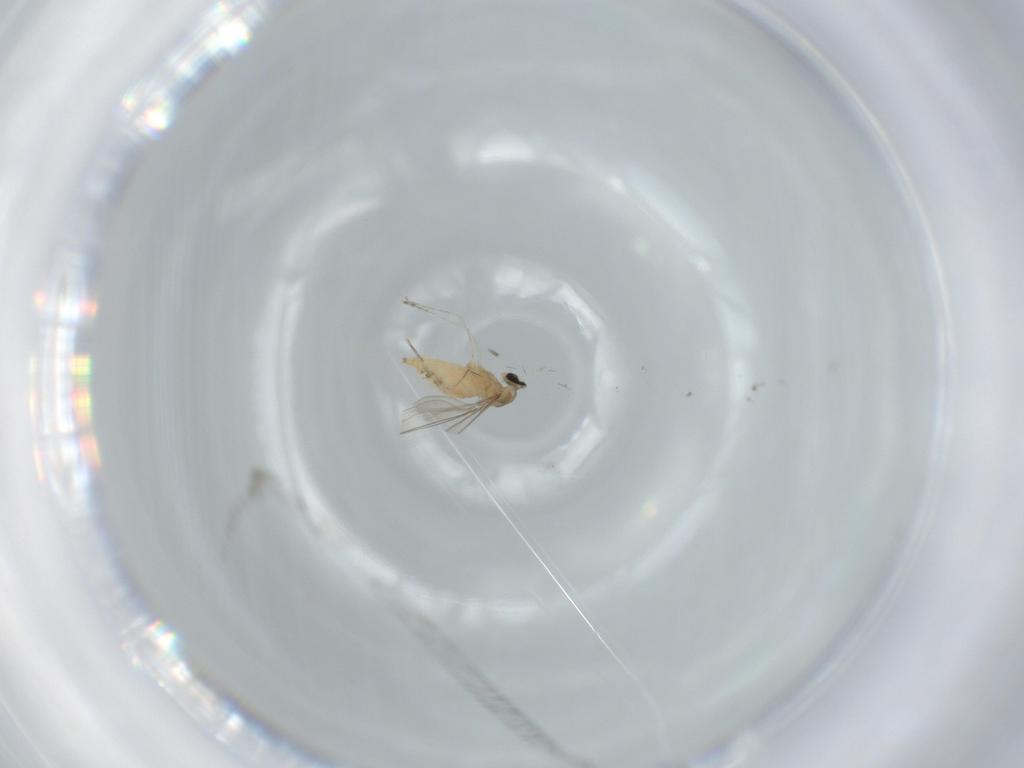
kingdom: Animalia
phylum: Arthropoda
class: Insecta
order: Diptera
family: Cecidomyiidae
